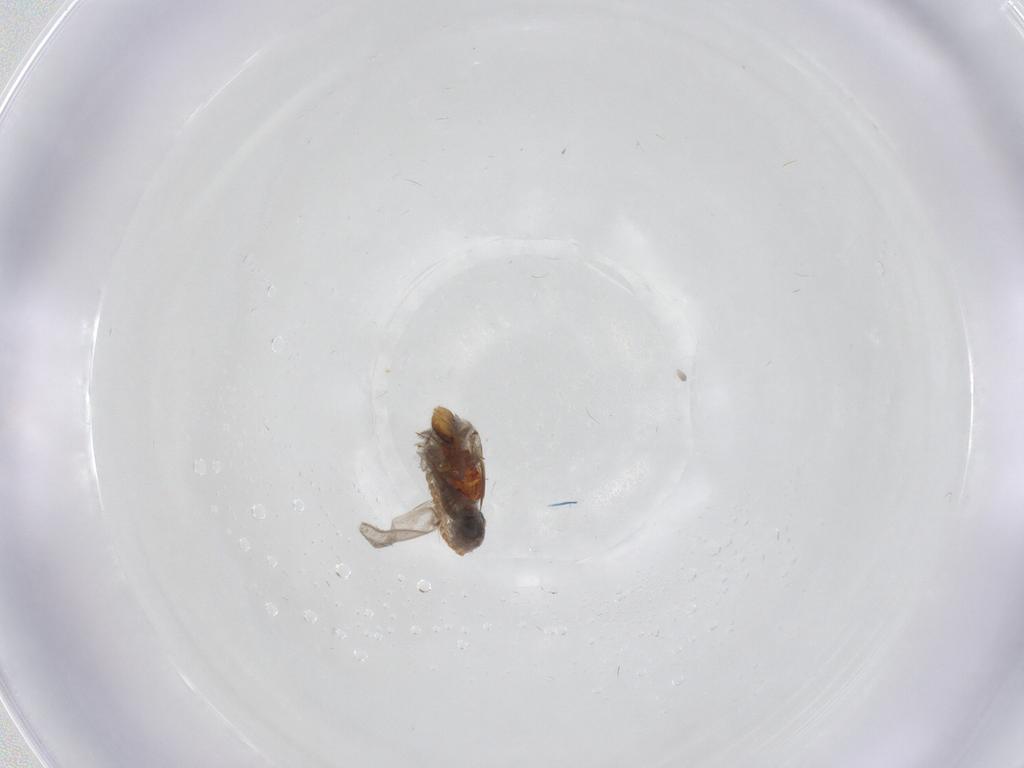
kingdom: Animalia
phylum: Arthropoda
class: Insecta
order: Diptera
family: Sciaridae
